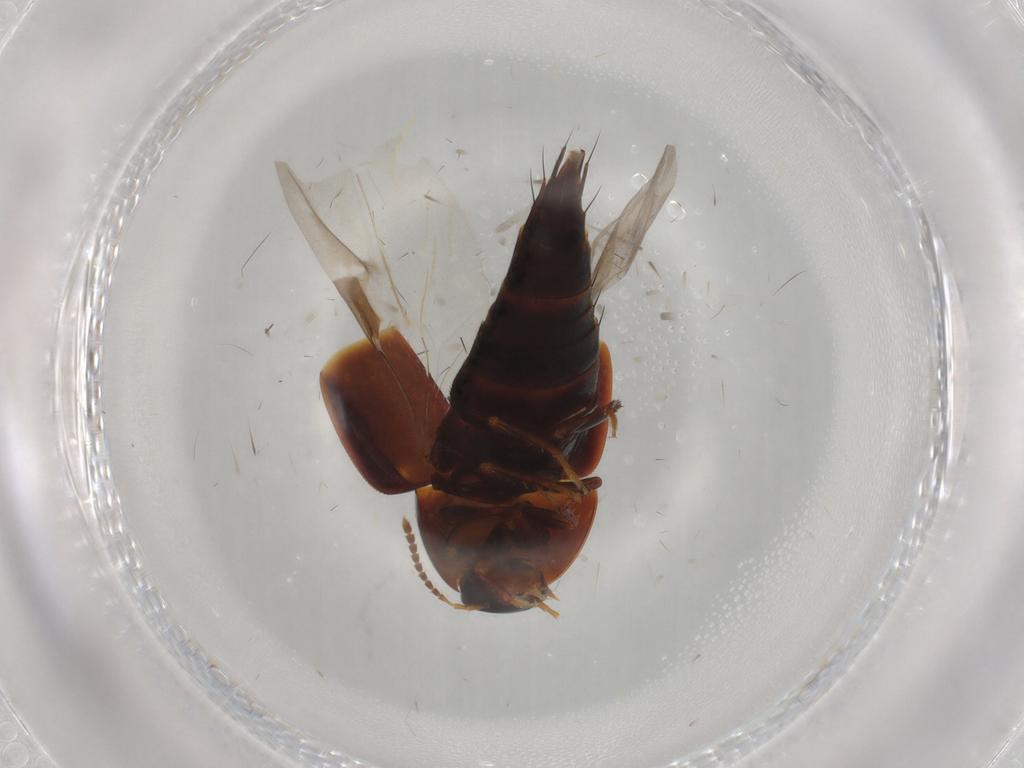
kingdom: Animalia
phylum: Arthropoda
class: Insecta
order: Coleoptera
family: Staphylinidae
